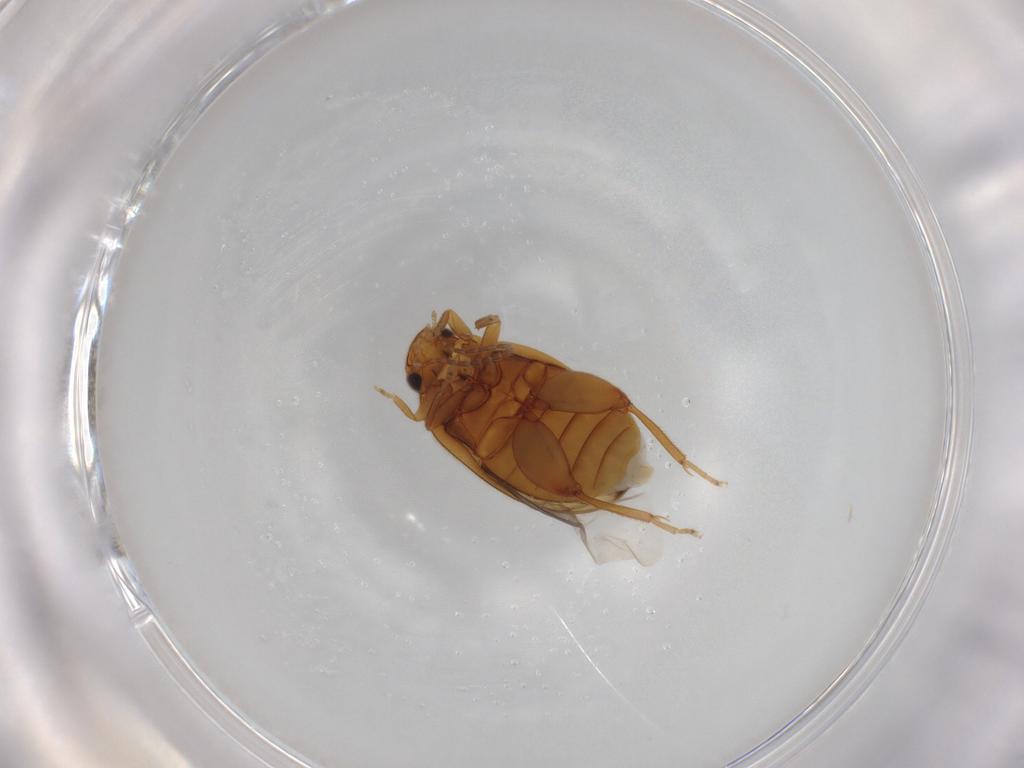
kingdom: Animalia
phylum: Arthropoda
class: Insecta
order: Coleoptera
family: Scirtidae
